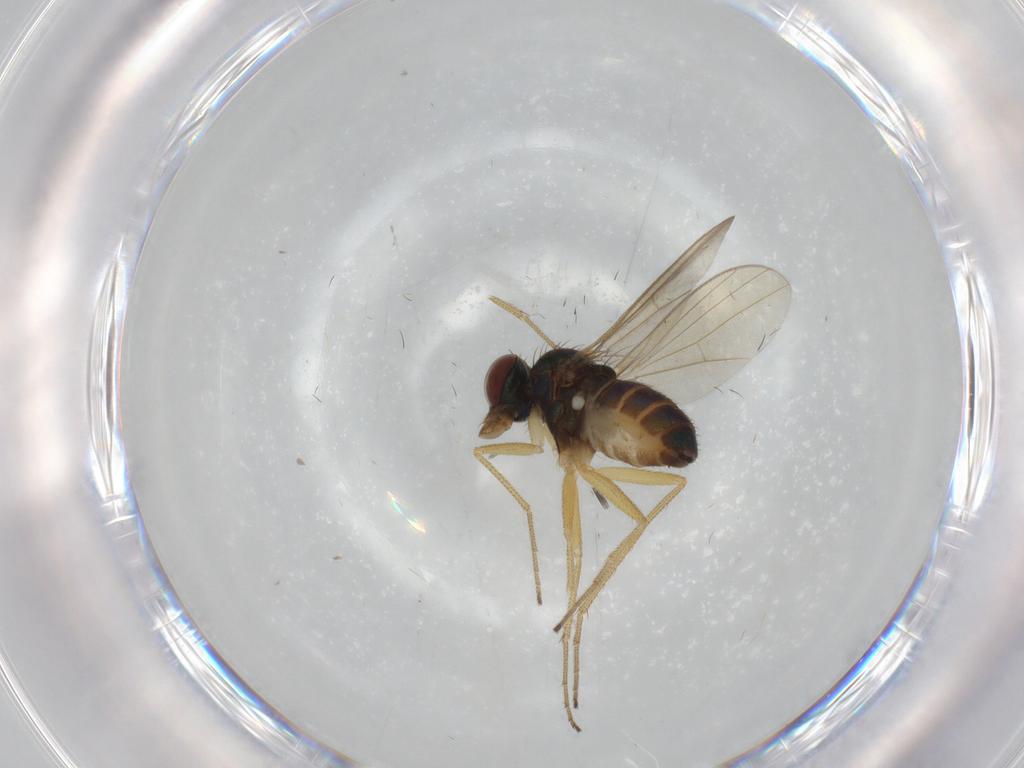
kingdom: Animalia
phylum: Arthropoda
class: Insecta
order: Diptera
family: Dolichopodidae
